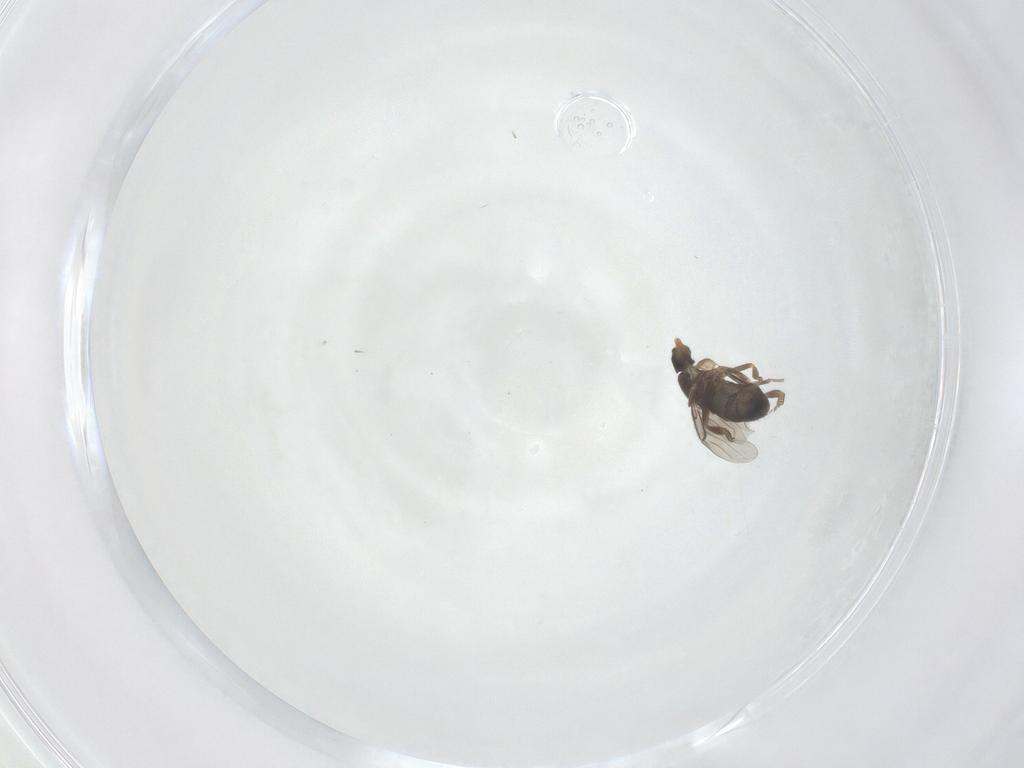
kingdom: Animalia
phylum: Arthropoda
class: Insecta
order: Diptera
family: Phoridae
